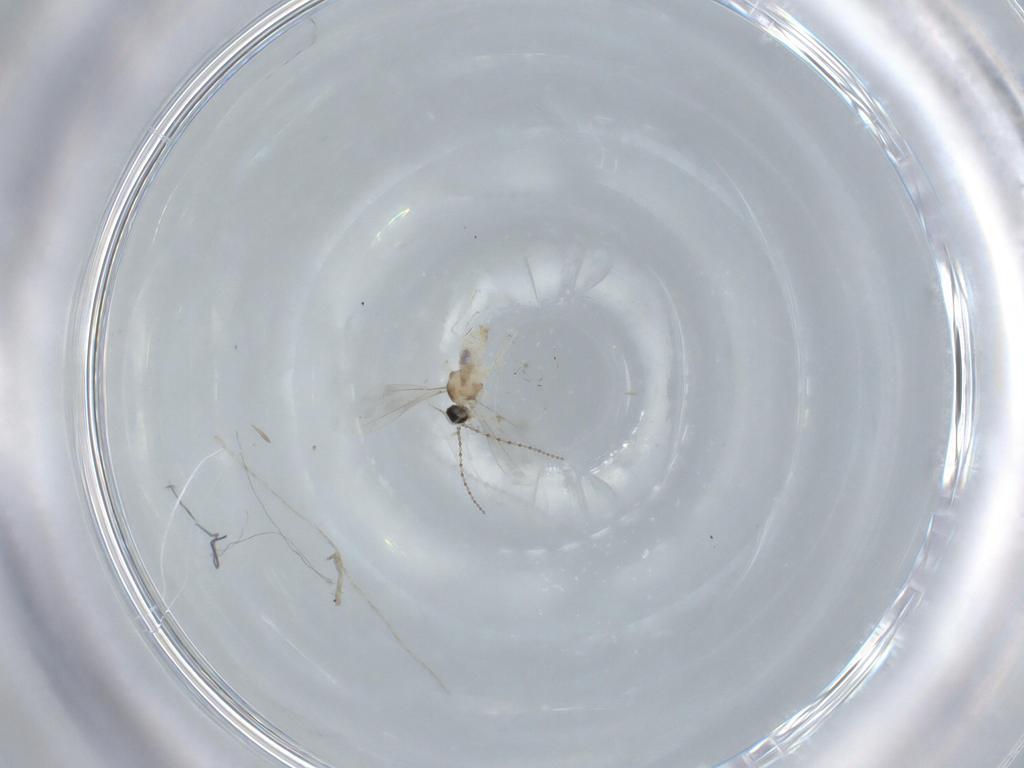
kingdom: Animalia
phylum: Arthropoda
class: Insecta
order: Diptera
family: Cecidomyiidae
